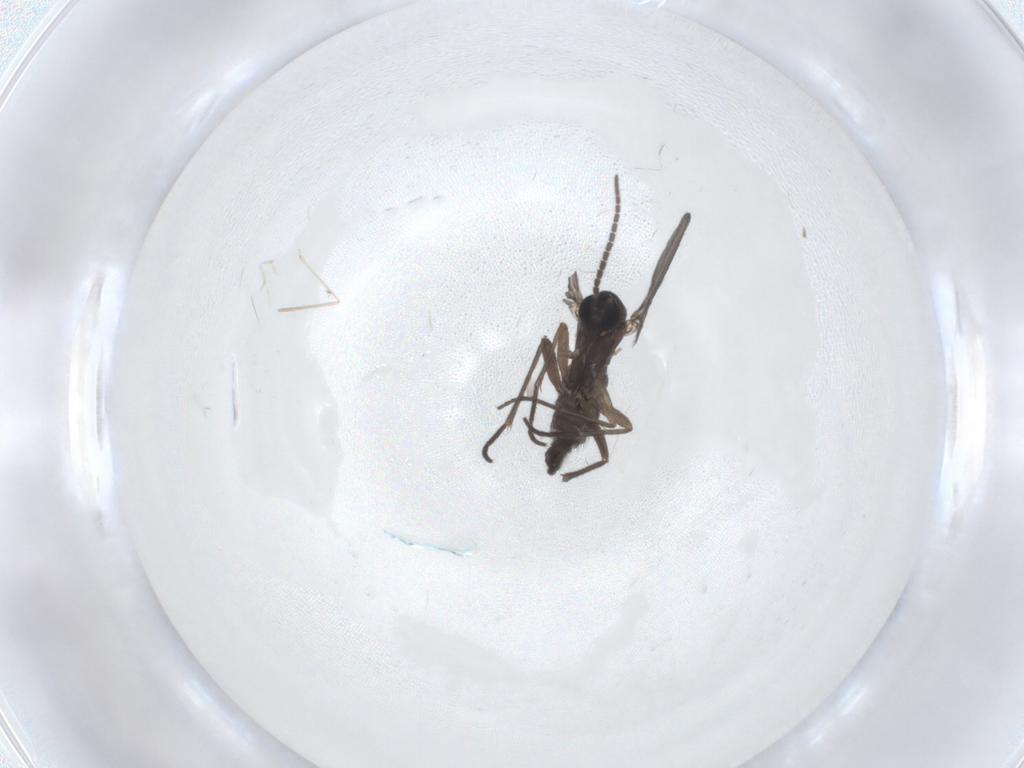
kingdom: Animalia
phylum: Arthropoda
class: Insecta
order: Diptera
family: Sciaridae
